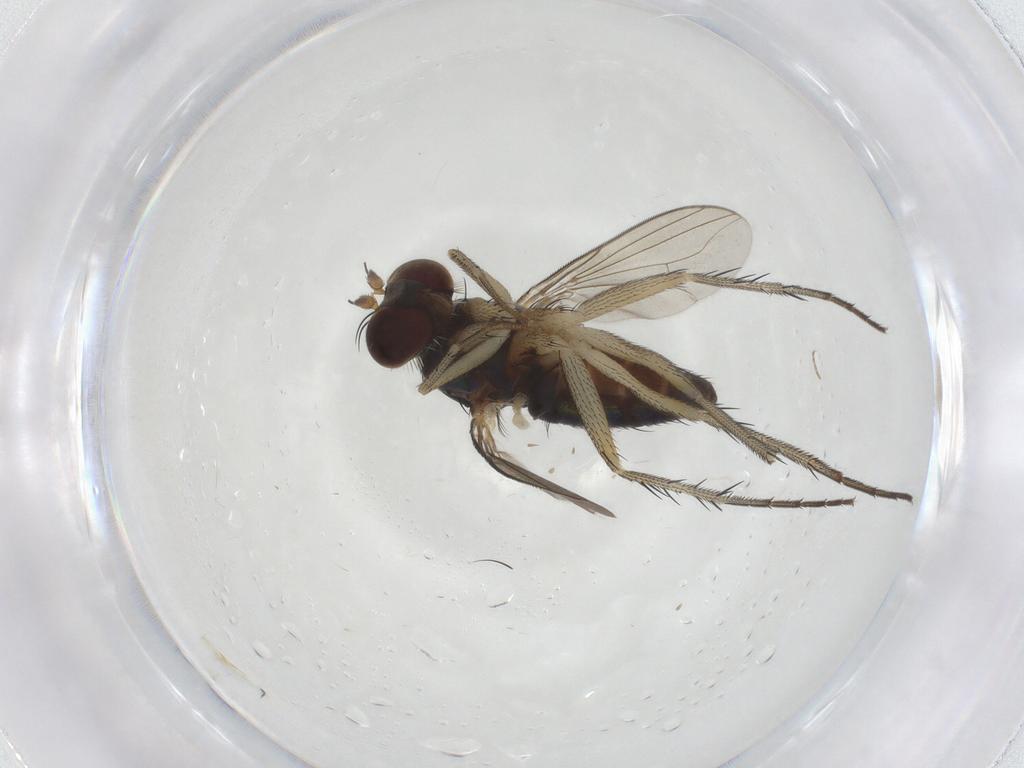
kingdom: Animalia
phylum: Arthropoda
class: Insecta
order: Diptera
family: Dolichopodidae
